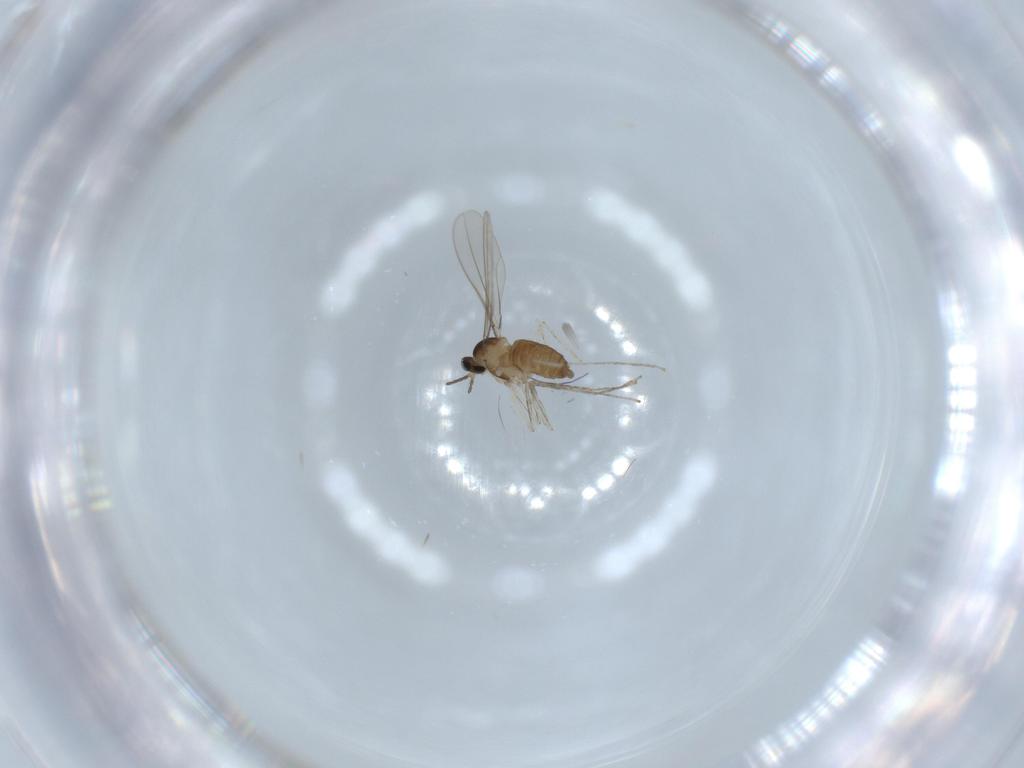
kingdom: Animalia
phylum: Arthropoda
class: Insecta
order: Diptera
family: Cecidomyiidae
